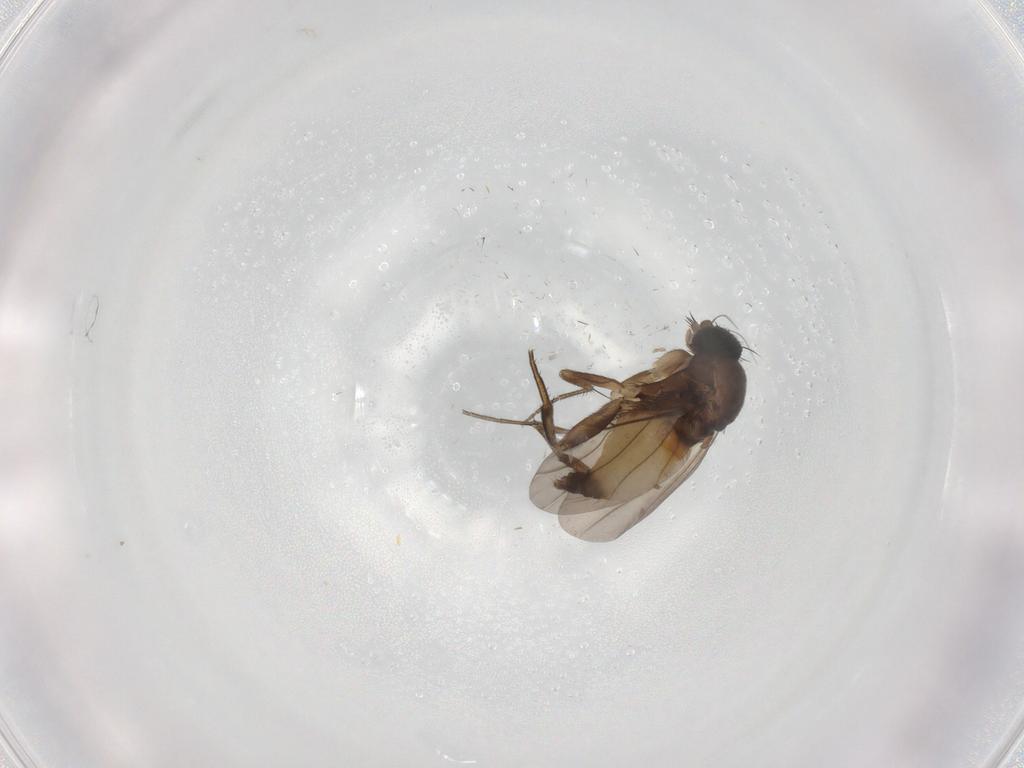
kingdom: Animalia
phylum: Arthropoda
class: Insecta
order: Diptera
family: Phoridae
